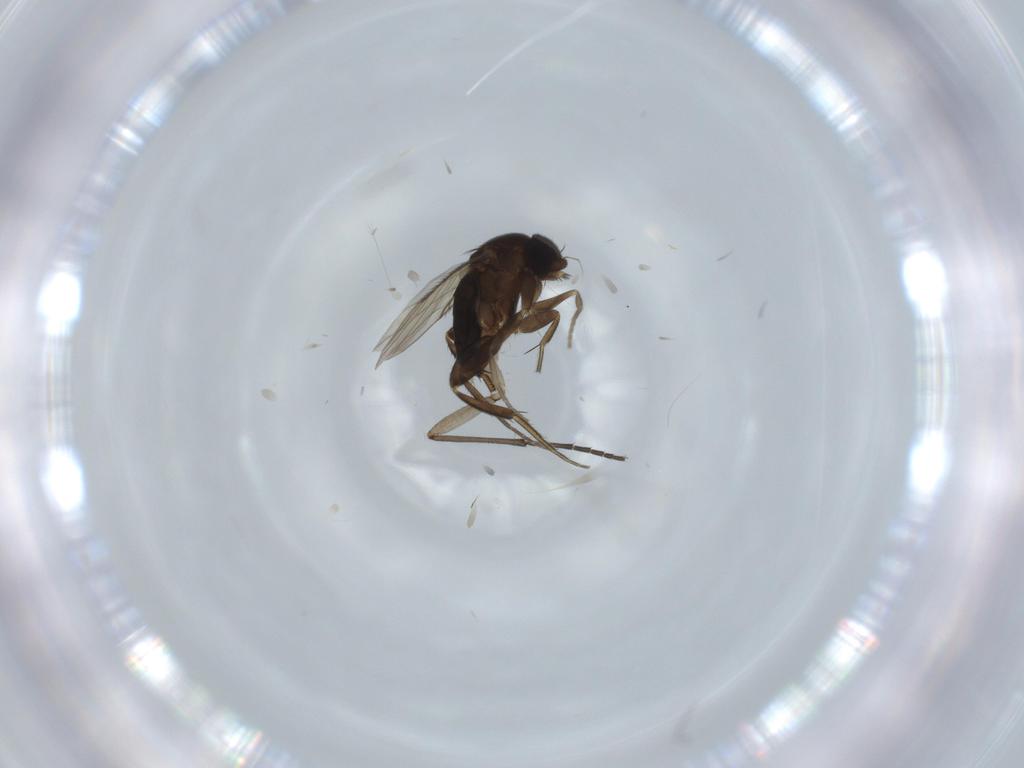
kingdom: Animalia
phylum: Arthropoda
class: Insecta
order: Diptera
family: Phoridae
